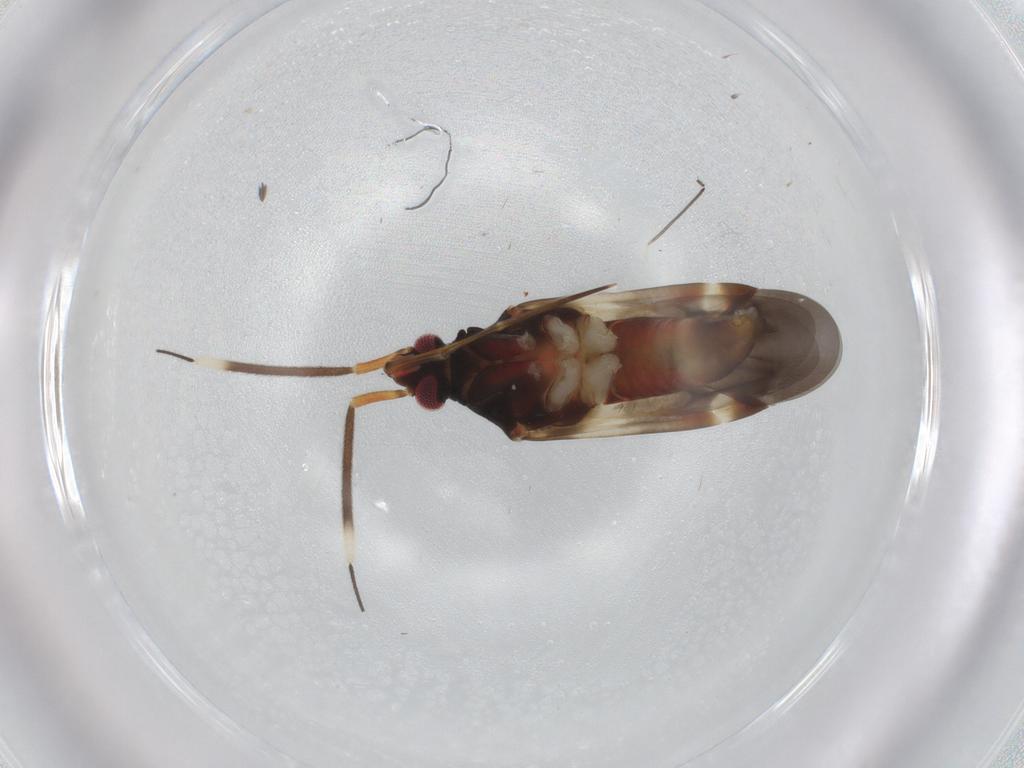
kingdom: Animalia
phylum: Arthropoda
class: Insecta
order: Hemiptera
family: Miridae
